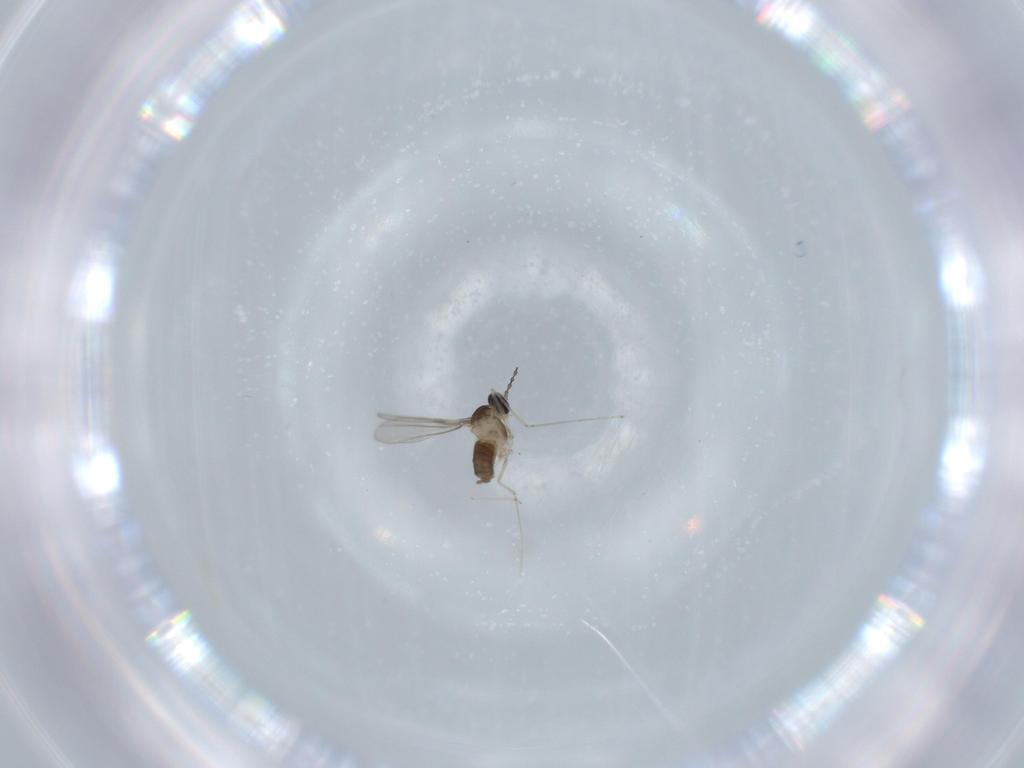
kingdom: Animalia
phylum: Arthropoda
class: Insecta
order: Diptera
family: Cecidomyiidae
